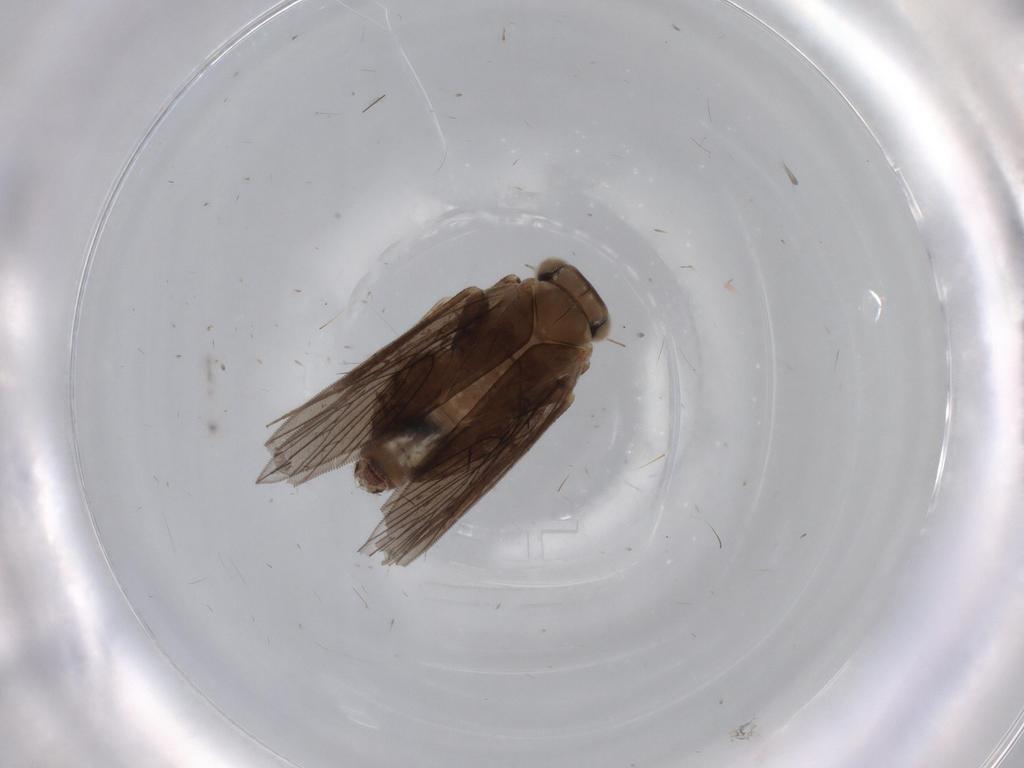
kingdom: Animalia
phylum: Arthropoda
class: Insecta
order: Psocodea
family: Lepidopsocidae
